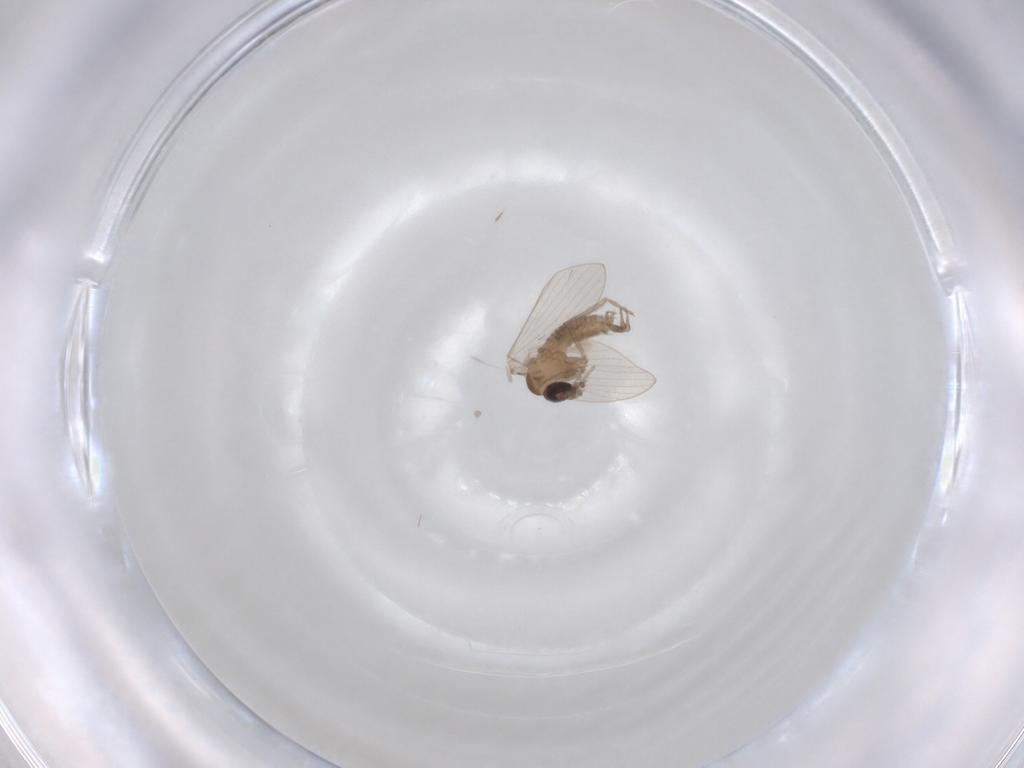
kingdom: Animalia
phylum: Arthropoda
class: Insecta
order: Diptera
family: Psychodidae
